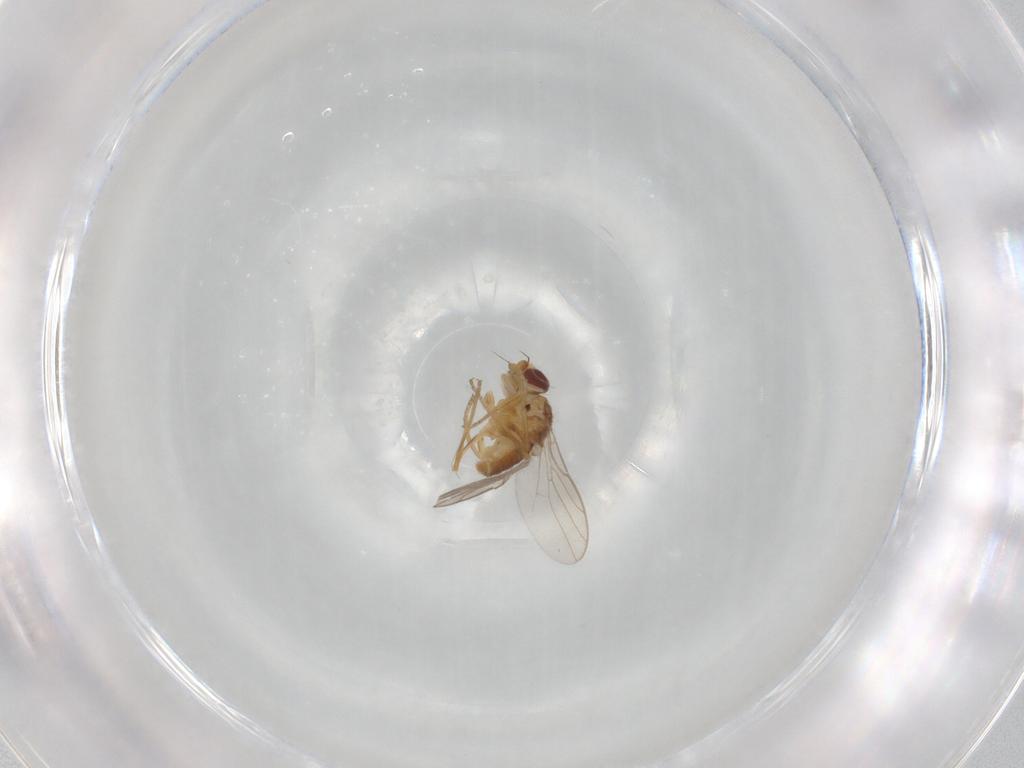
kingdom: Animalia
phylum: Arthropoda
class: Insecta
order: Diptera
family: Chloropidae
